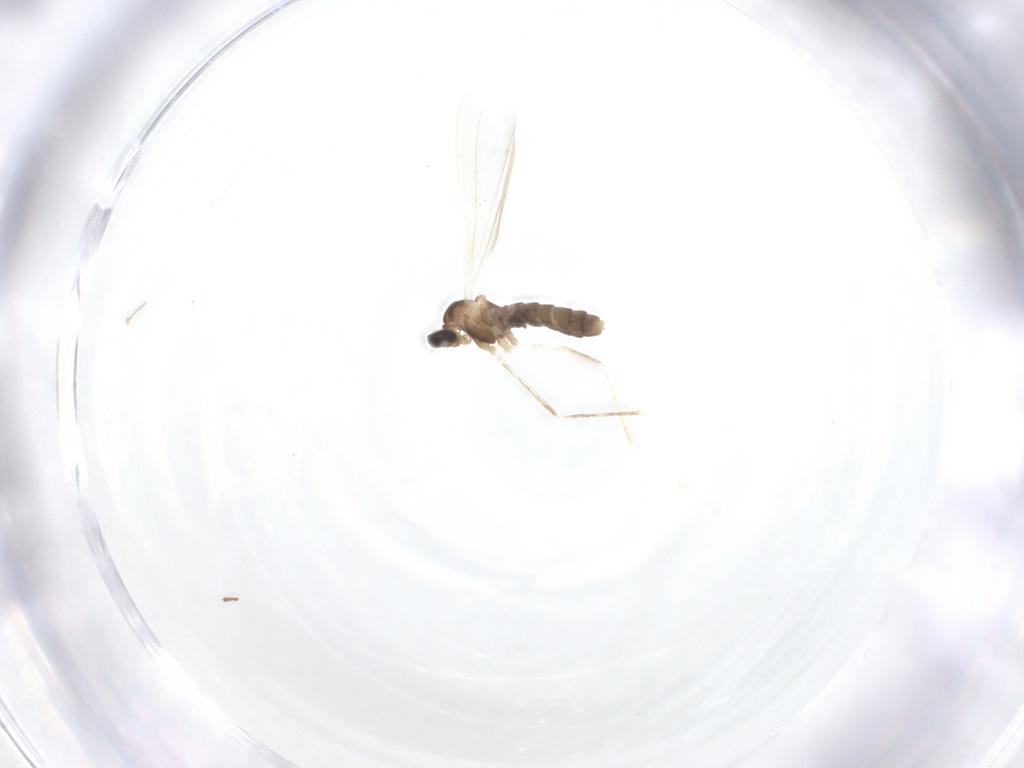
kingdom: Animalia
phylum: Arthropoda
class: Insecta
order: Diptera
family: Cecidomyiidae
